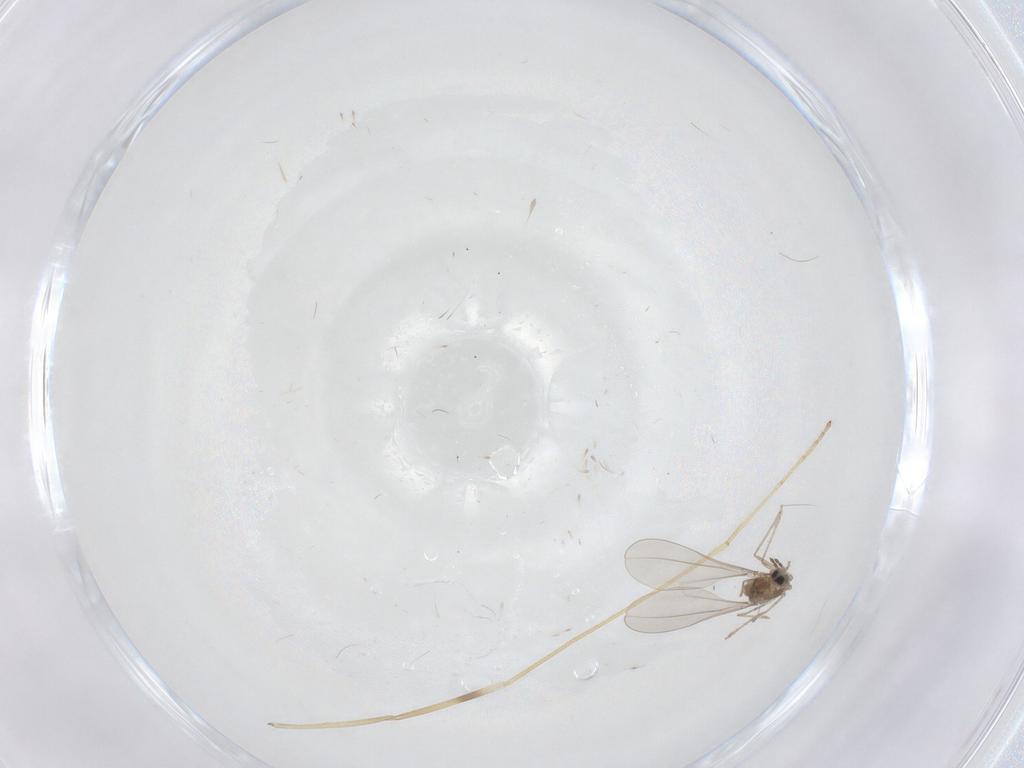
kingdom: Animalia
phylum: Arthropoda
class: Insecta
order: Diptera
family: Limoniidae
